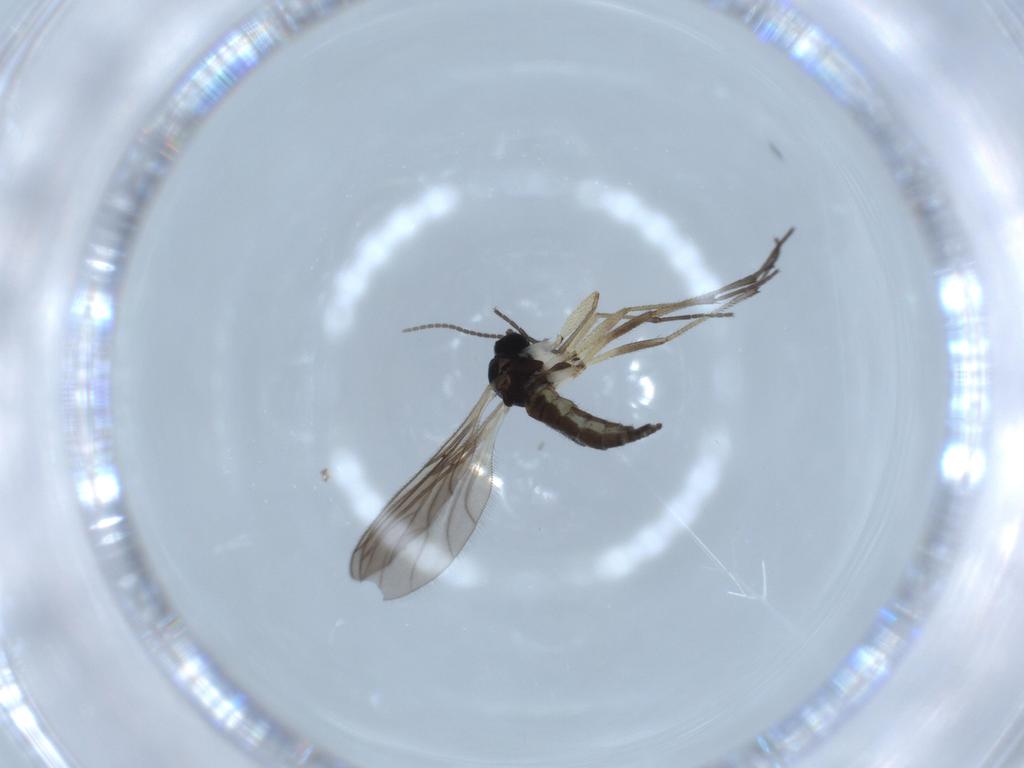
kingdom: Animalia
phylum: Arthropoda
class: Insecta
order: Diptera
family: Sciaridae
